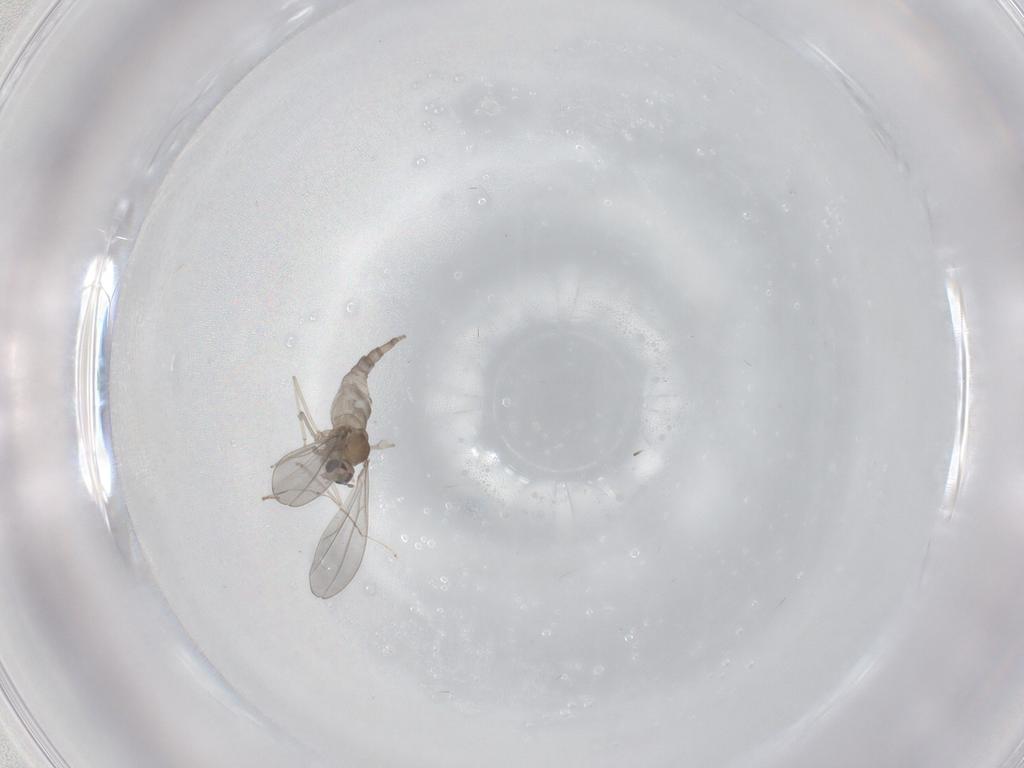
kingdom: Animalia
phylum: Arthropoda
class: Insecta
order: Diptera
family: Cecidomyiidae
